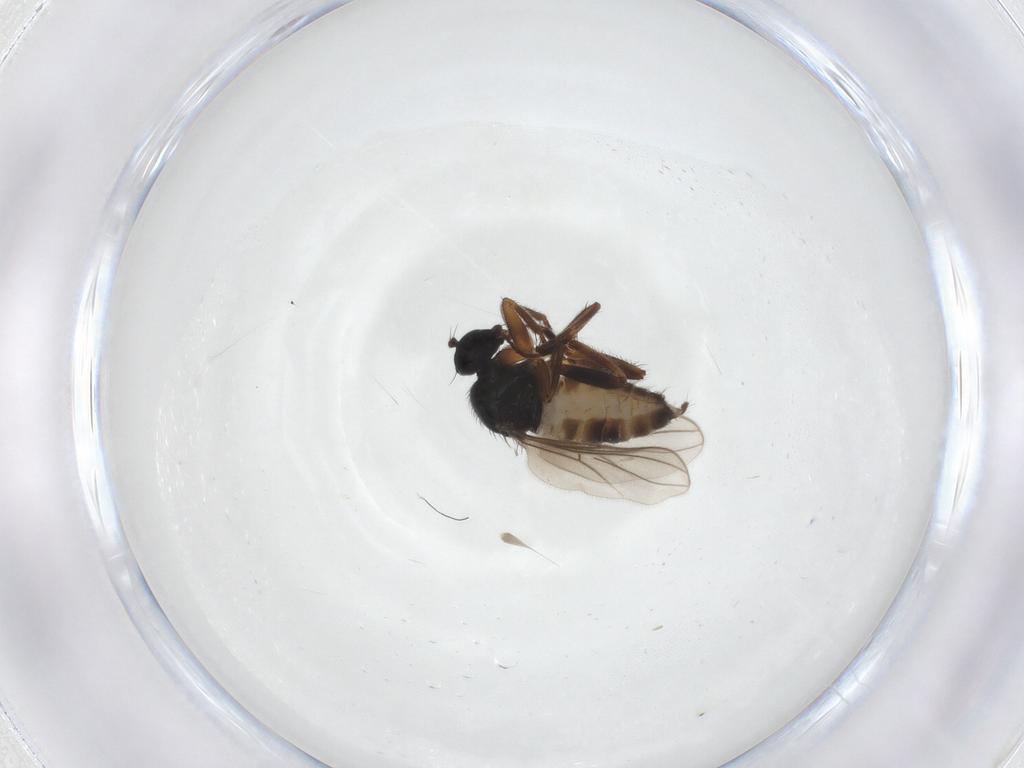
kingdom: Animalia
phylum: Arthropoda
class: Insecta
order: Diptera
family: Hybotidae
